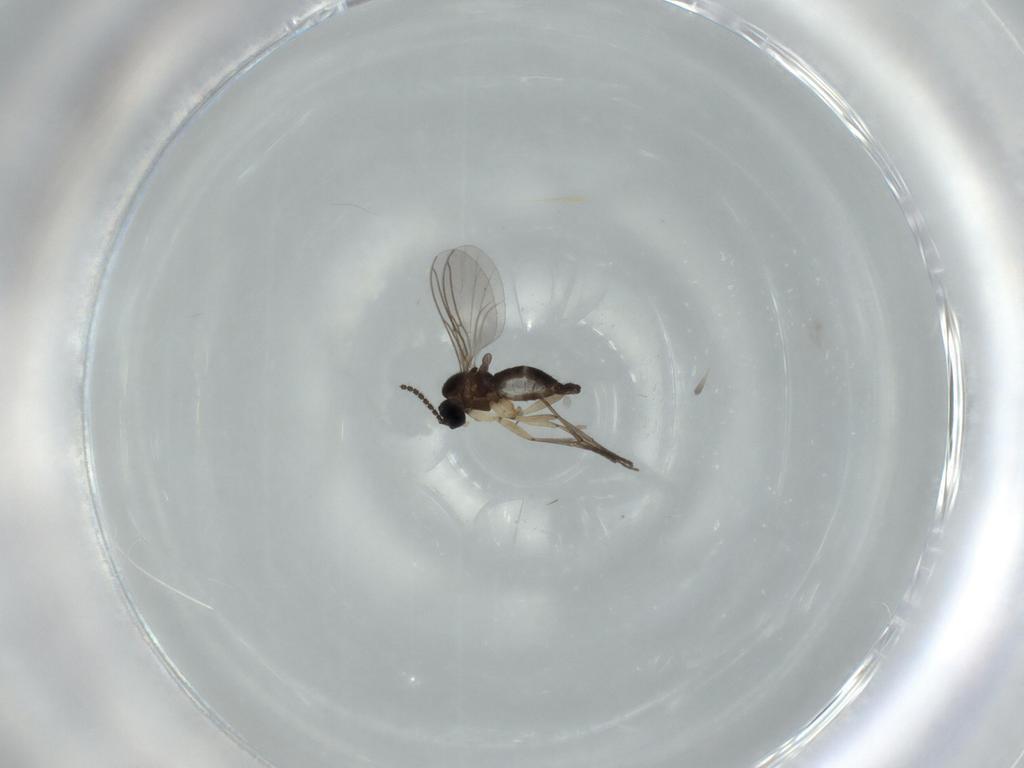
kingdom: Animalia
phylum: Arthropoda
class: Insecta
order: Diptera
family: Sciaridae
